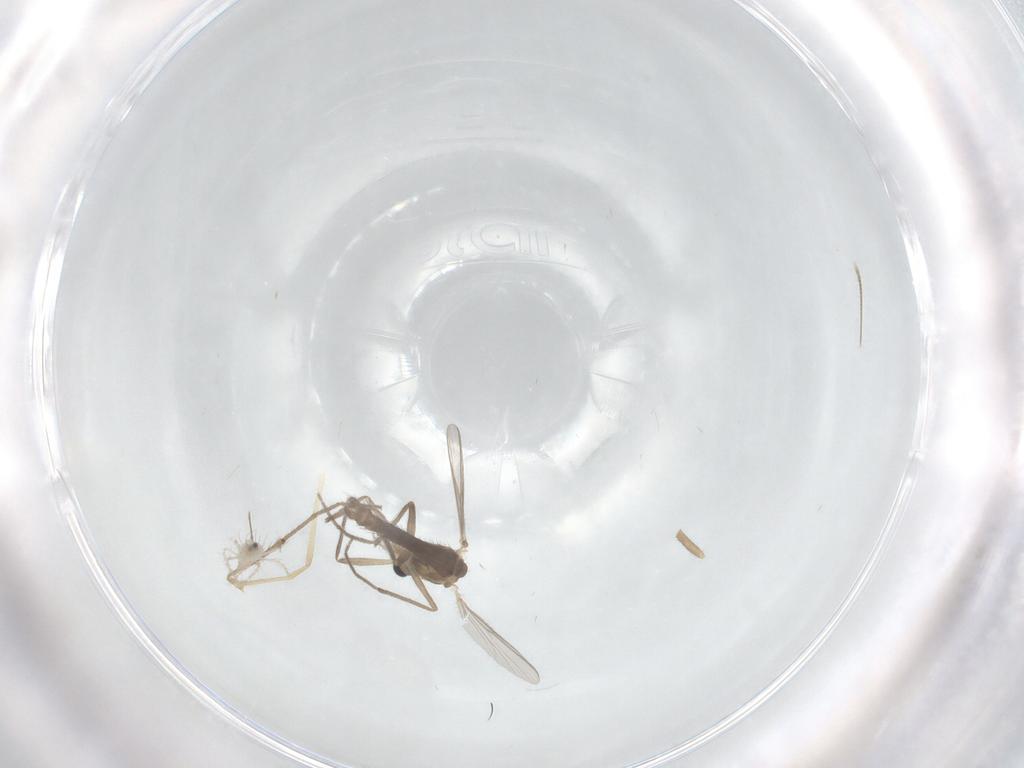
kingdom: Animalia
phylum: Arthropoda
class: Insecta
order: Diptera
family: Chironomidae
